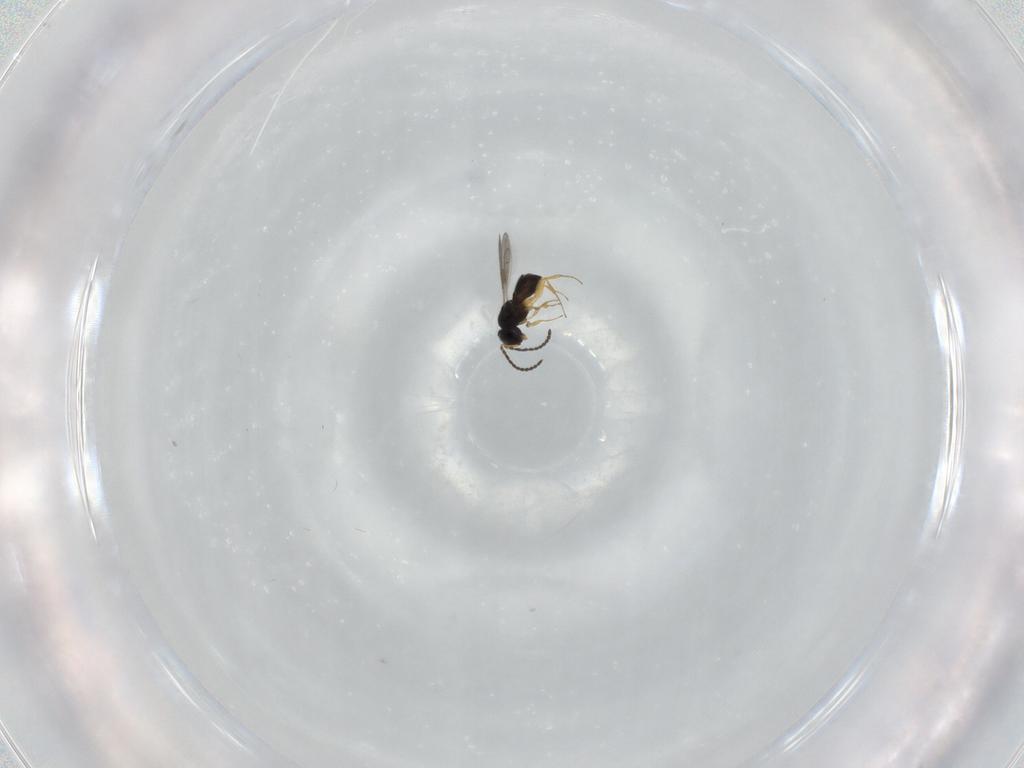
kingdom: Animalia
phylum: Arthropoda
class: Insecta
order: Hymenoptera
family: Scelionidae
